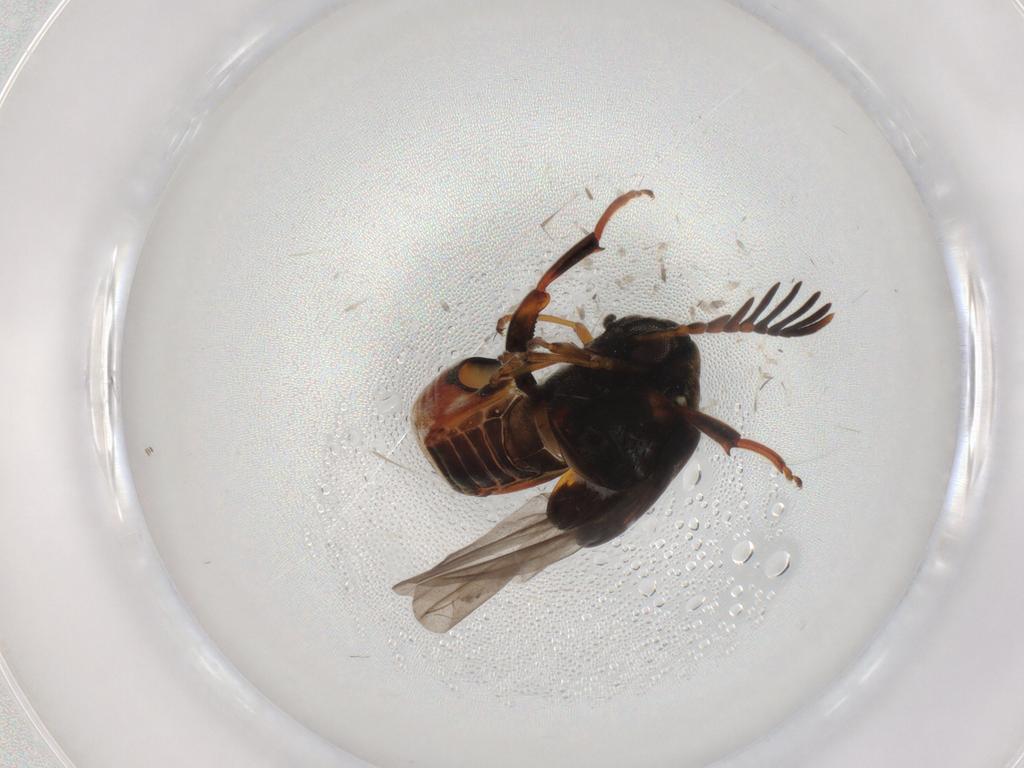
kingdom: Animalia
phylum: Arthropoda
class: Insecta
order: Coleoptera
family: Chrysomelidae
